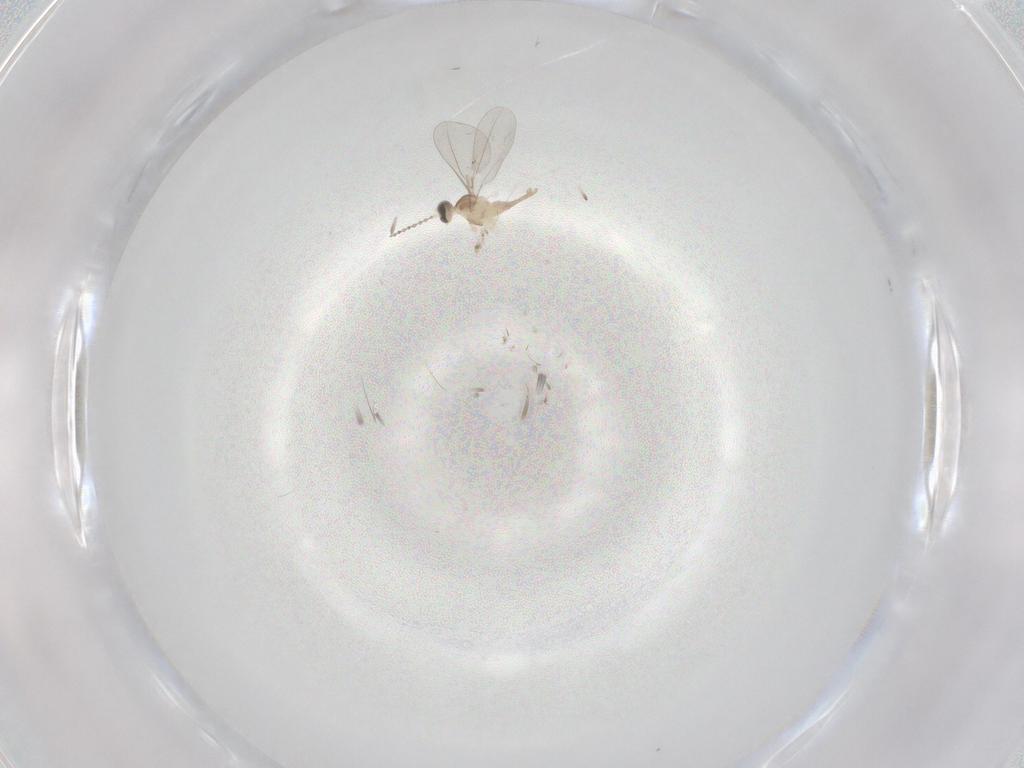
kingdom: Animalia
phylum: Arthropoda
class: Insecta
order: Diptera
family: Cecidomyiidae
